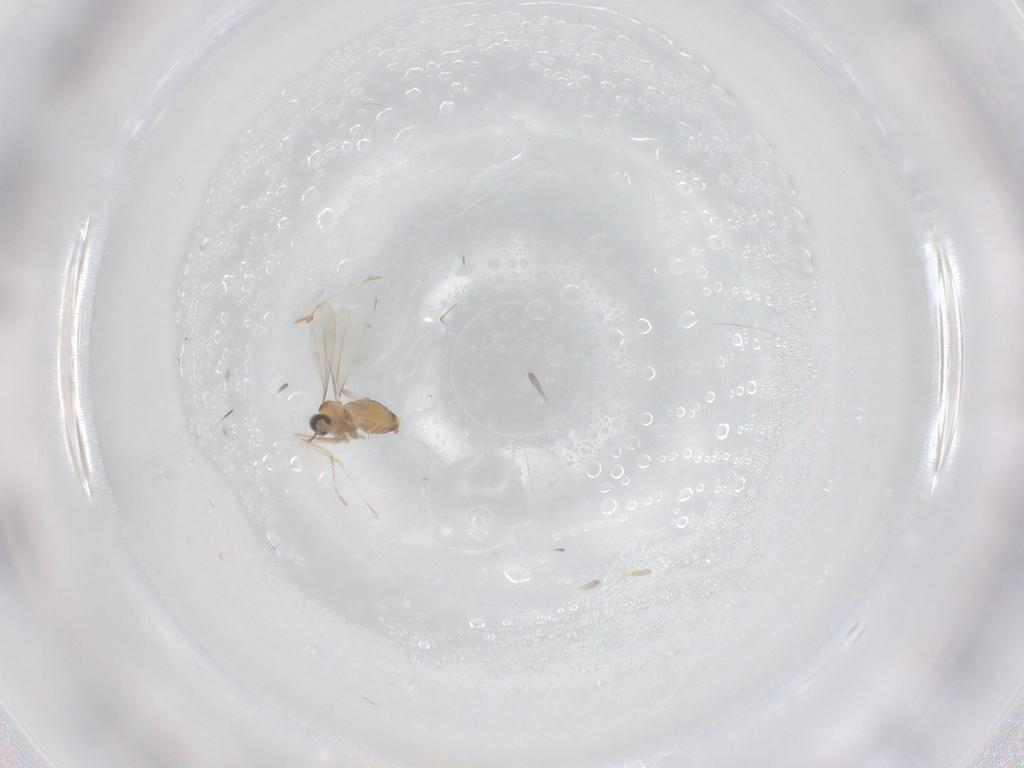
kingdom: Animalia
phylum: Arthropoda
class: Insecta
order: Diptera
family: Cecidomyiidae
